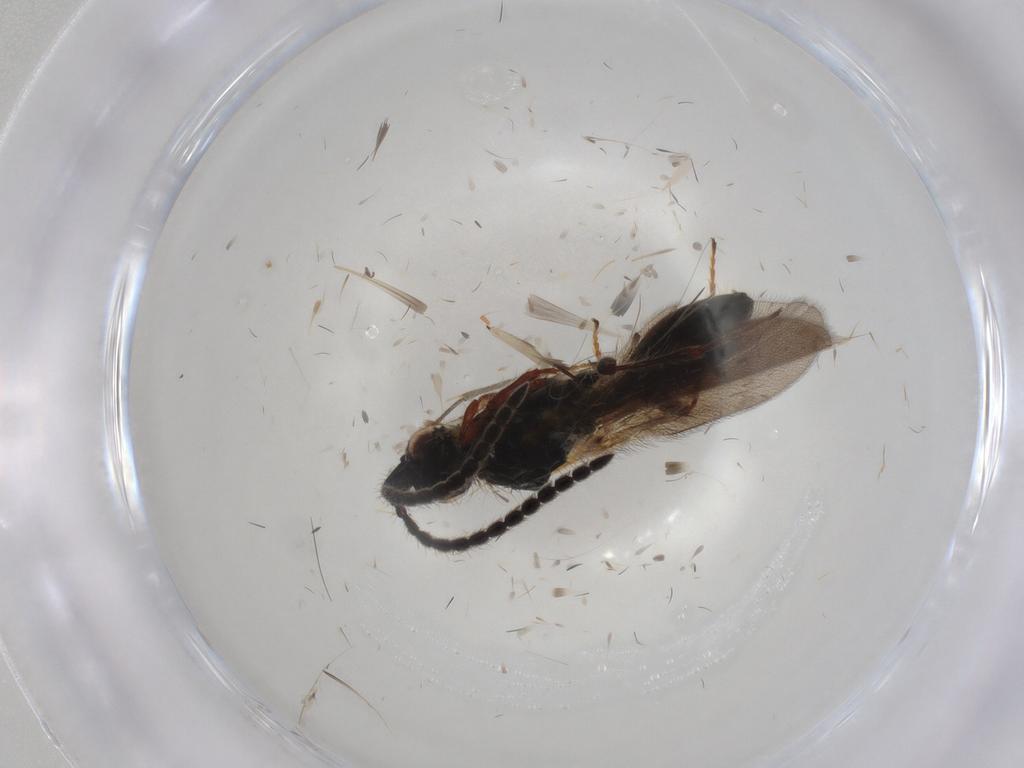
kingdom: Animalia
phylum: Arthropoda
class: Insecta
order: Hymenoptera
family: Diapriidae
